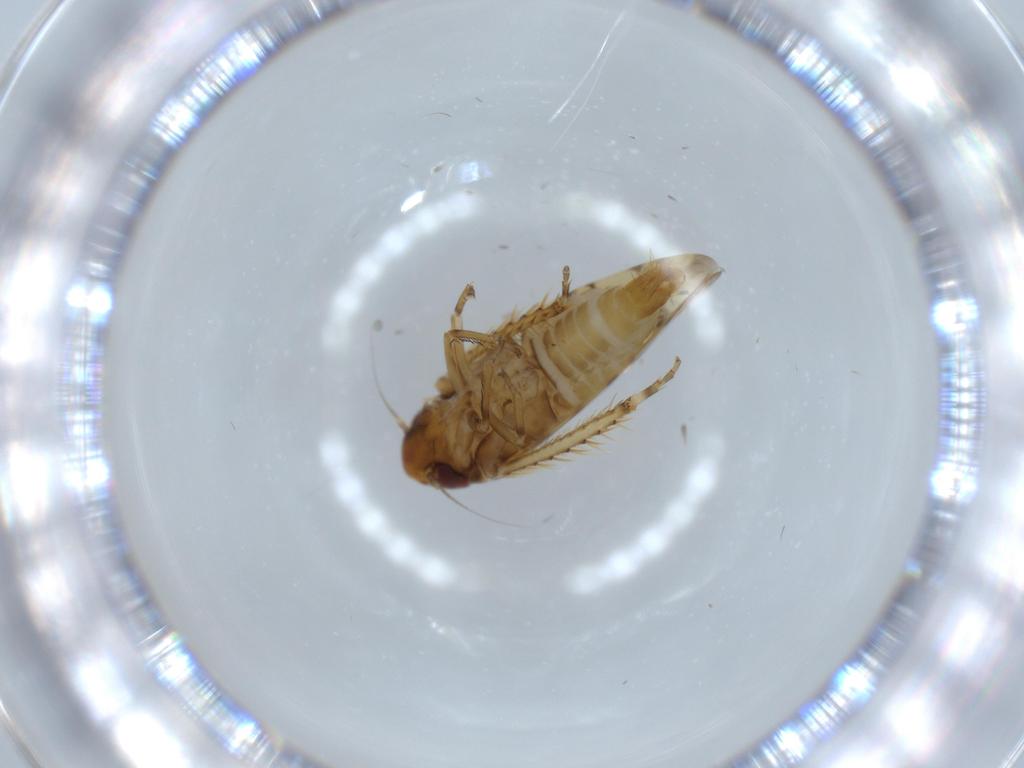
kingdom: Animalia
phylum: Arthropoda
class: Insecta
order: Hemiptera
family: Cicadellidae
